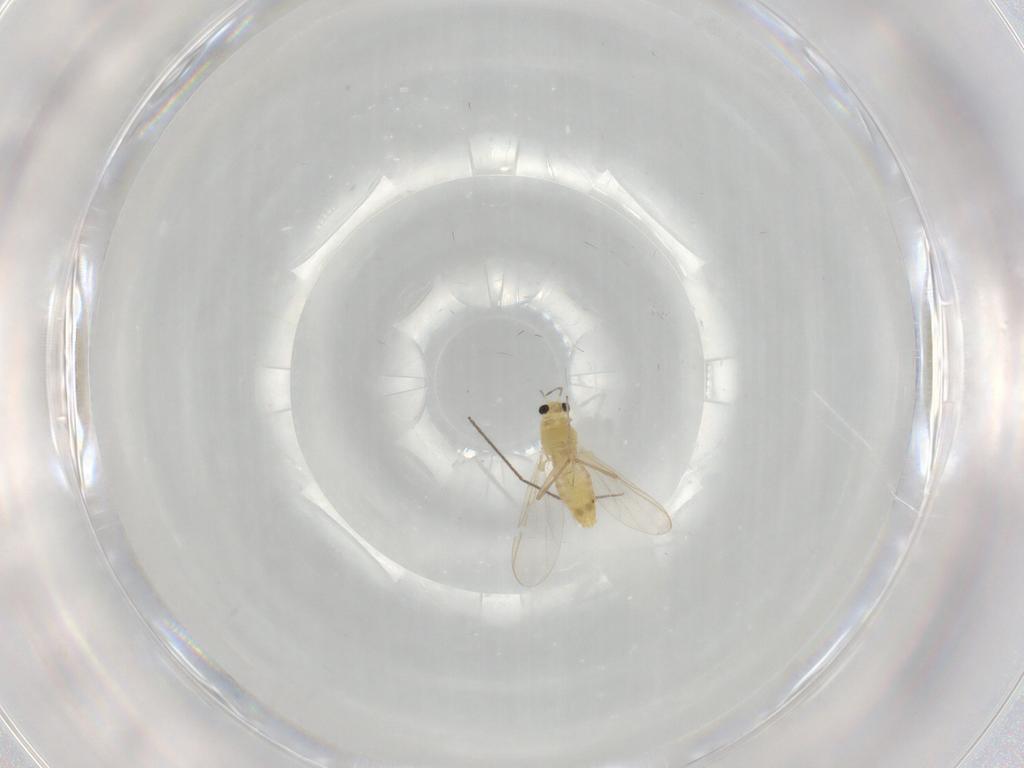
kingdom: Animalia
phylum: Arthropoda
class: Insecta
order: Diptera
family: Chironomidae
